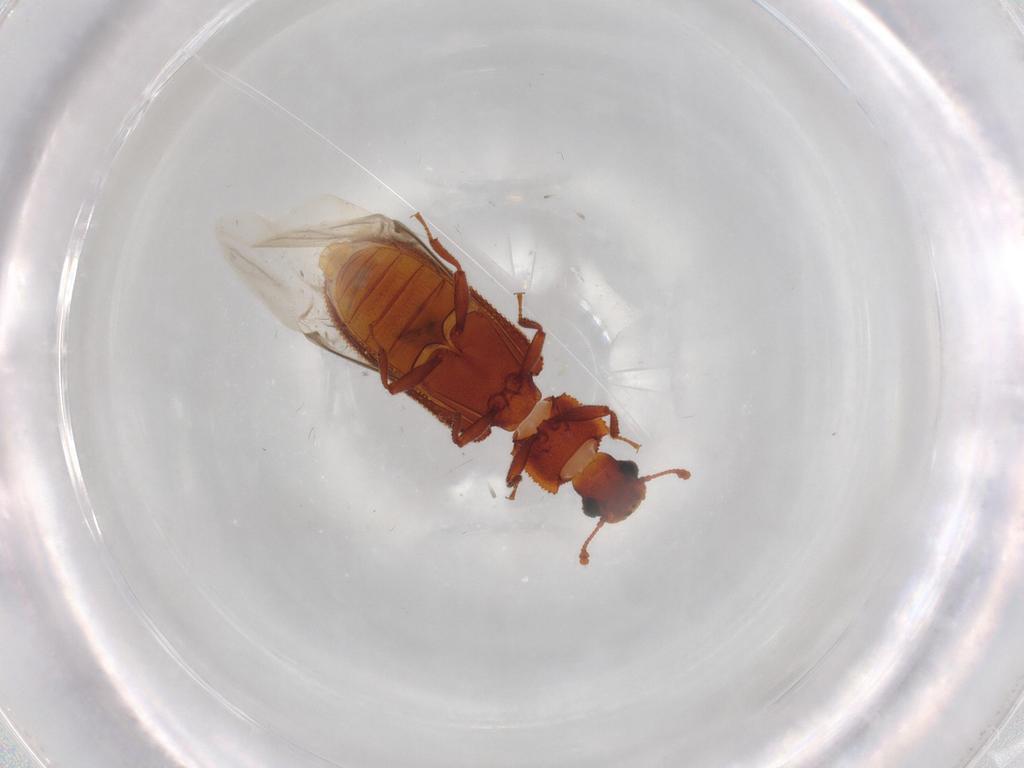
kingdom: Animalia
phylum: Arthropoda
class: Insecta
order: Coleoptera
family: Zopheridae
